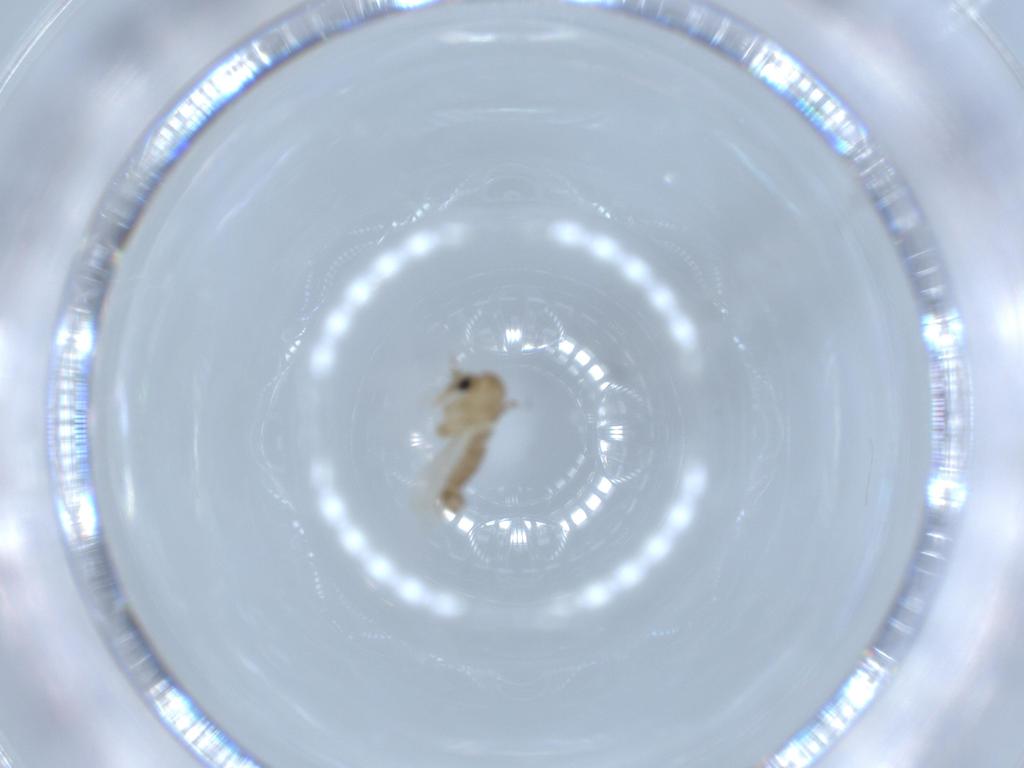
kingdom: Animalia
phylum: Arthropoda
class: Insecta
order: Diptera
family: Psychodidae
